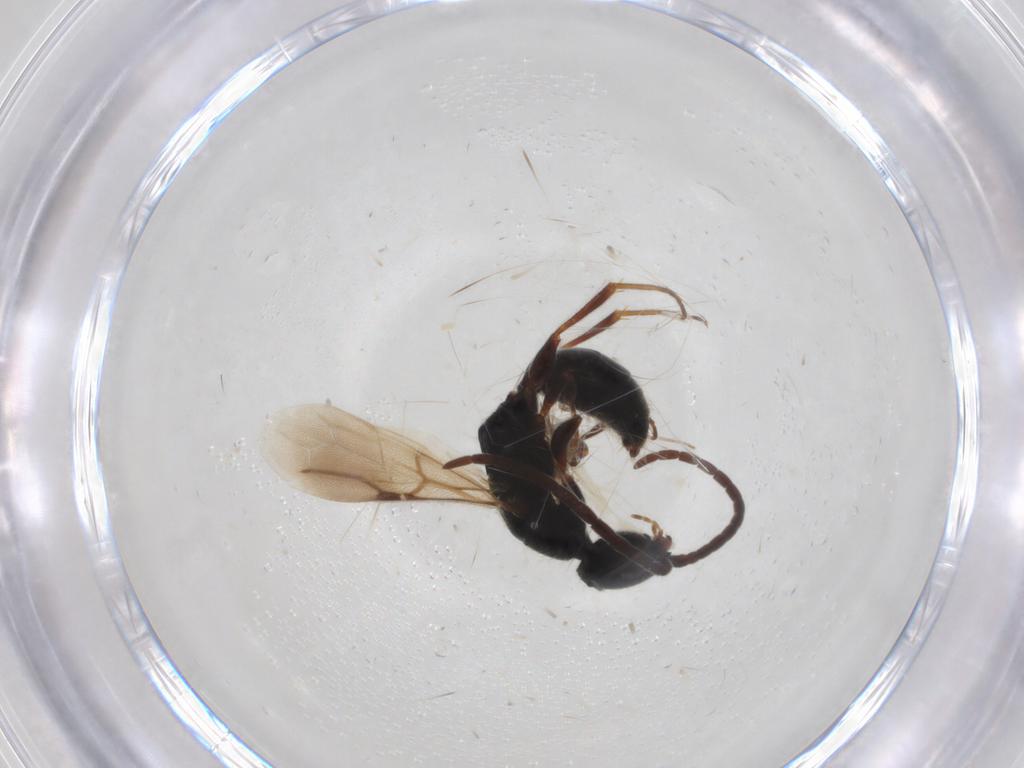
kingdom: Animalia
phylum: Arthropoda
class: Insecta
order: Hymenoptera
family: Bethylidae
